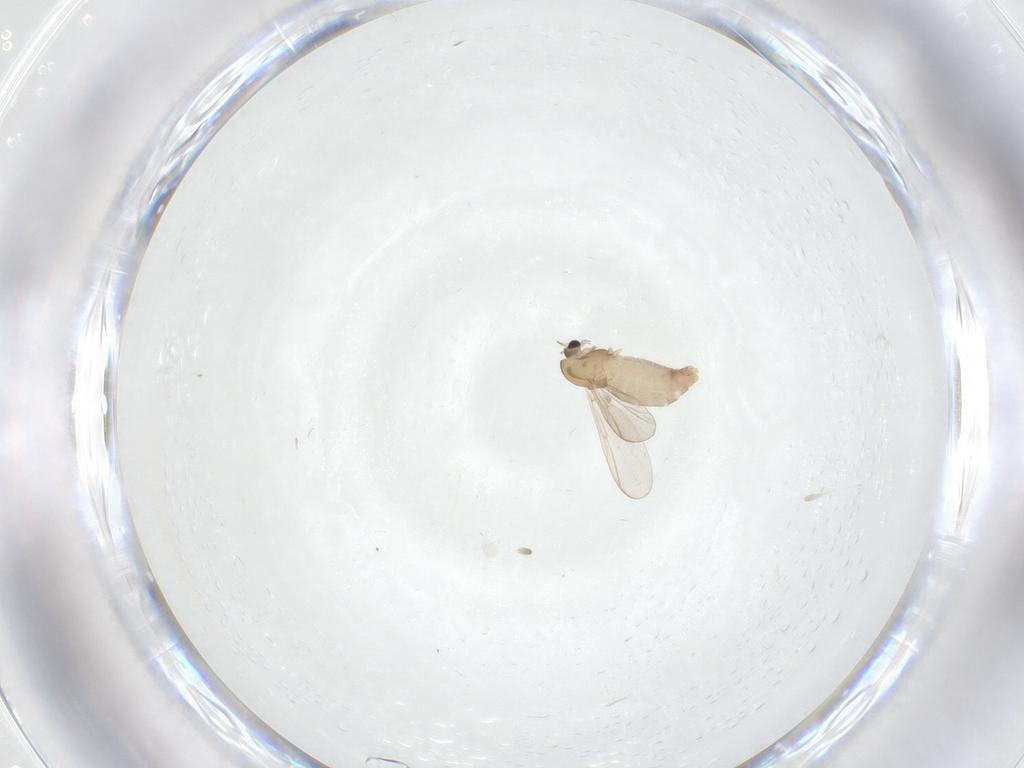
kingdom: Animalia
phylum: Arthropoda
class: Insecta
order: Diptera
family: Chironomidae
